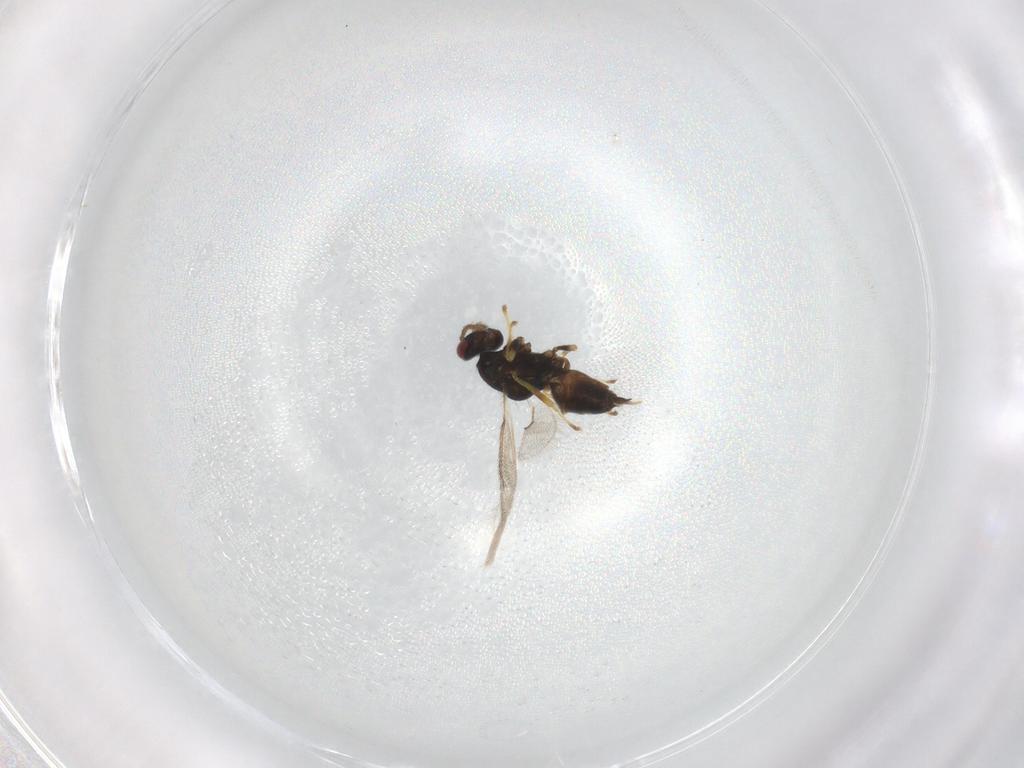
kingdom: Animalia
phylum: Arthropoda
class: Insecta
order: Hymenoptera
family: Eulophidae
